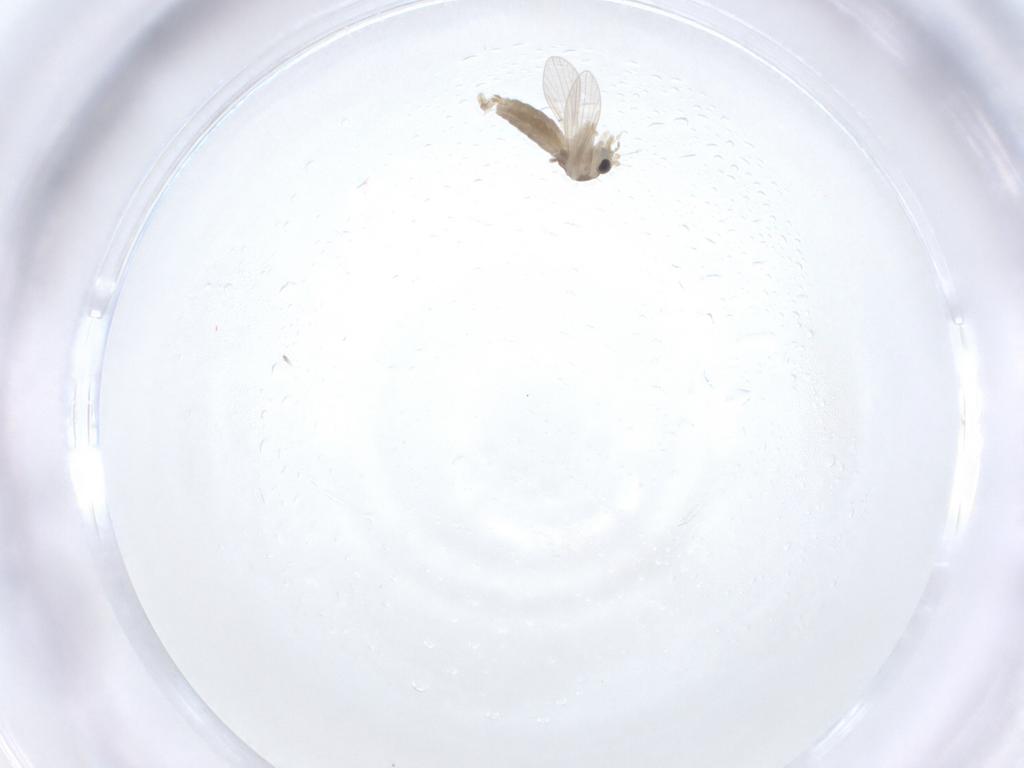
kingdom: Animalia
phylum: Arthropoda
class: Insecta
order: Diptera
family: Psychodidae
